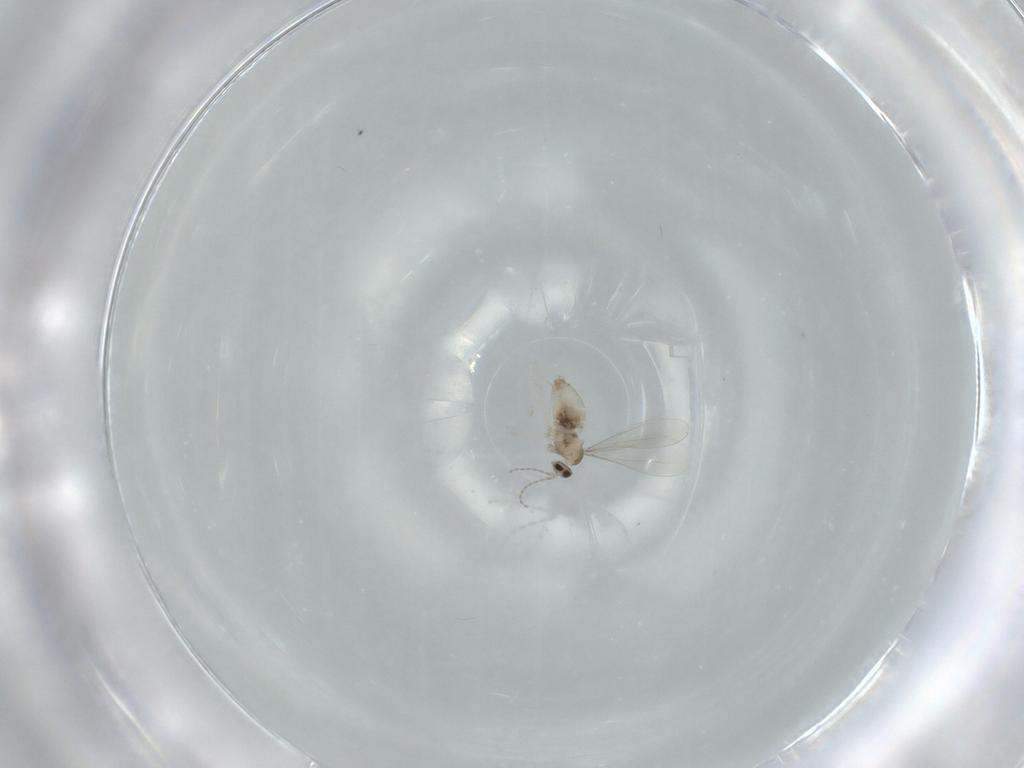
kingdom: Animalia
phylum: Arthropoda
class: Insecta
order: Diptera
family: Cecidomyiidae
